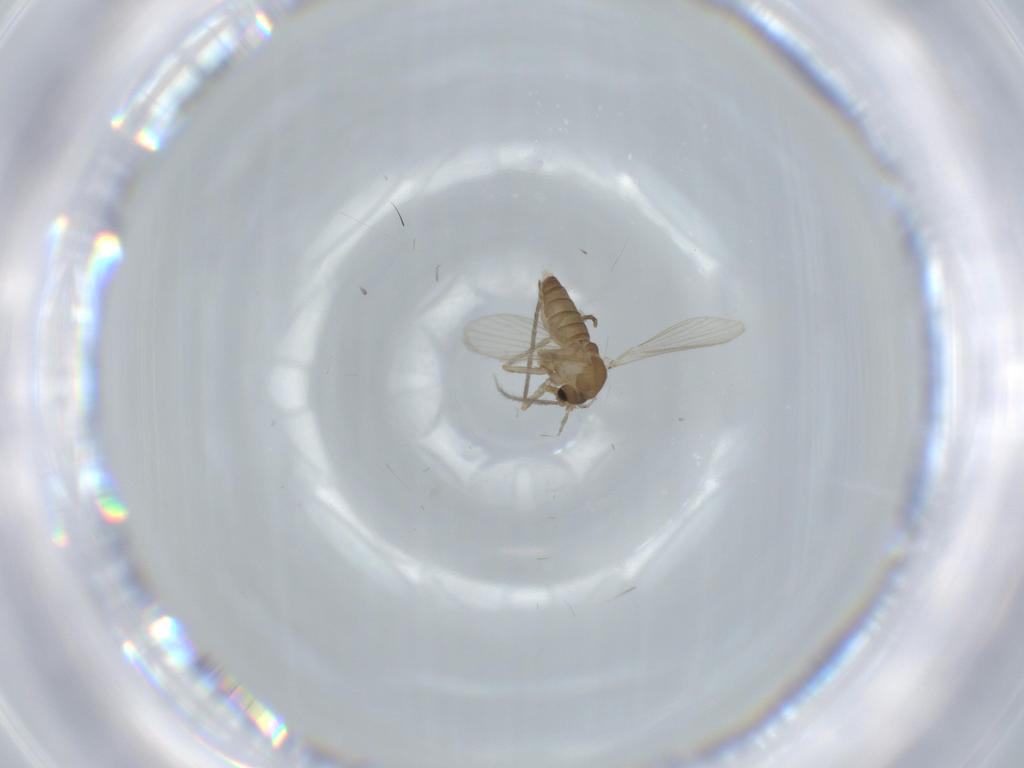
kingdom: Animalia
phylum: Arthropoda
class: Insecta
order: Diptera
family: Psychodidae
